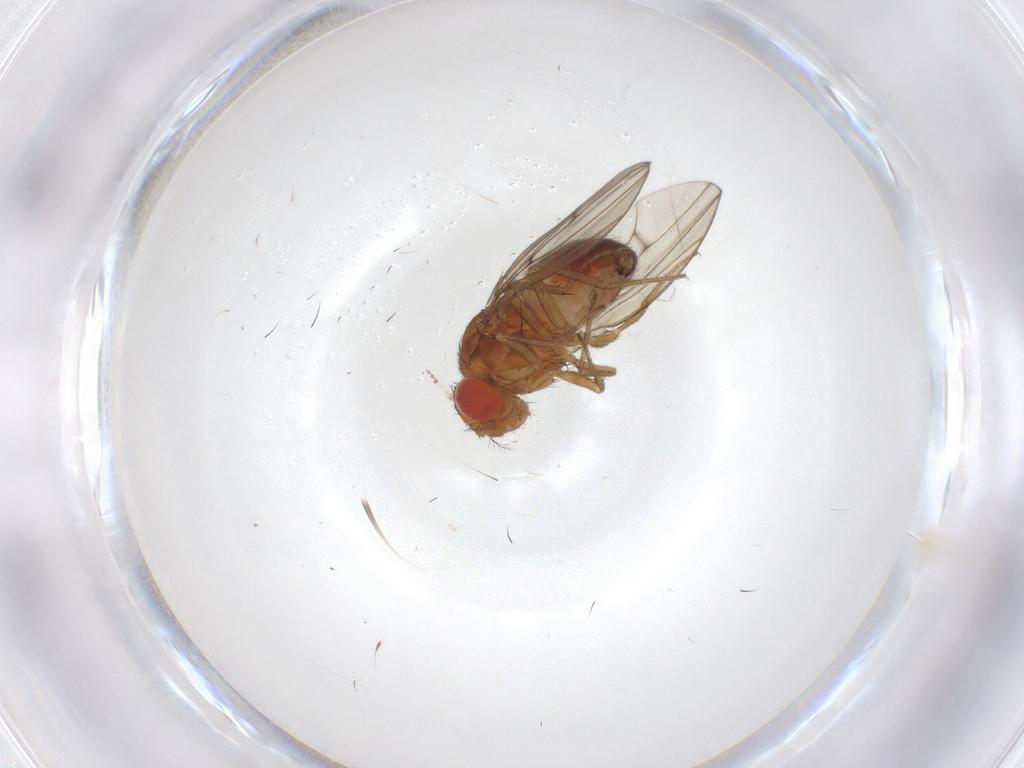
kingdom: Animalia
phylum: Arthropoda
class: Insecta
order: Diptera
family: Drosophilidae
